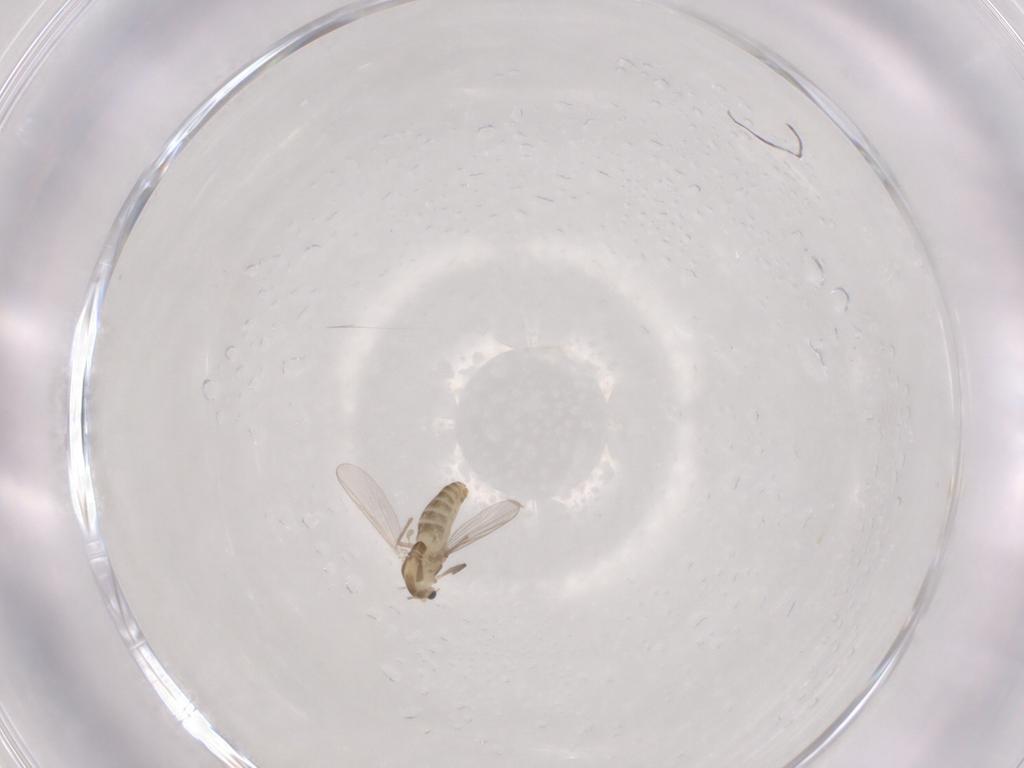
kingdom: Animalia
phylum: Arthropoda
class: Insecta
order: Diptera
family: Chironomidae
